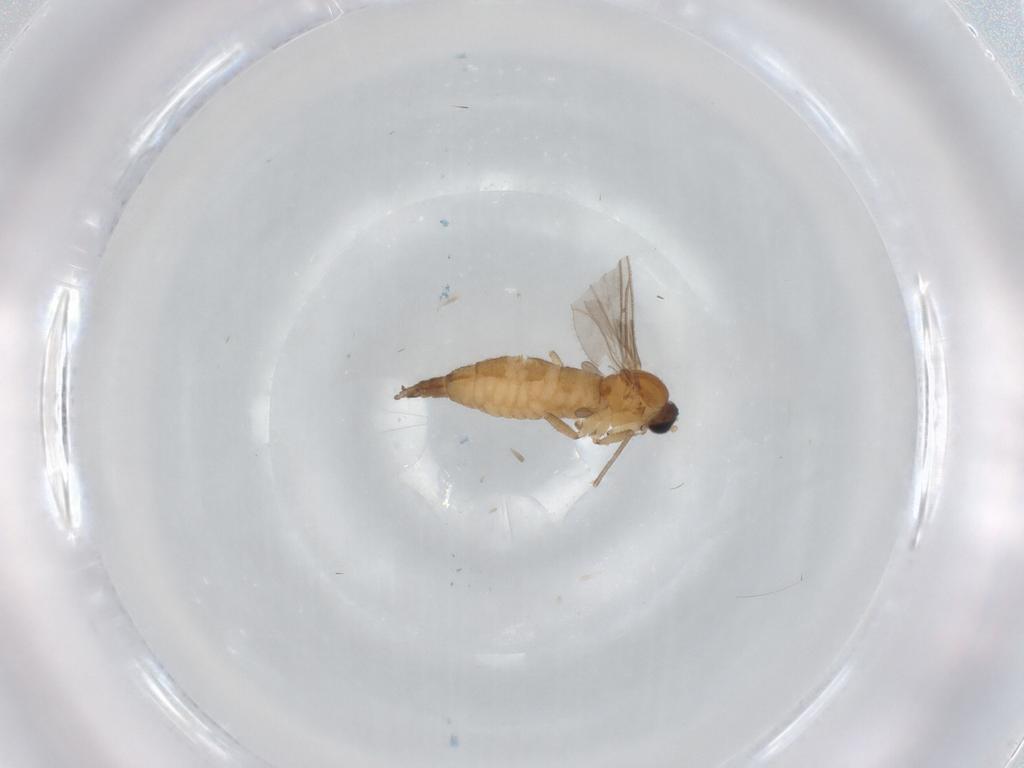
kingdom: Animalia
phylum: Arthropoda
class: Insecta
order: Diptera
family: Sciaridae
